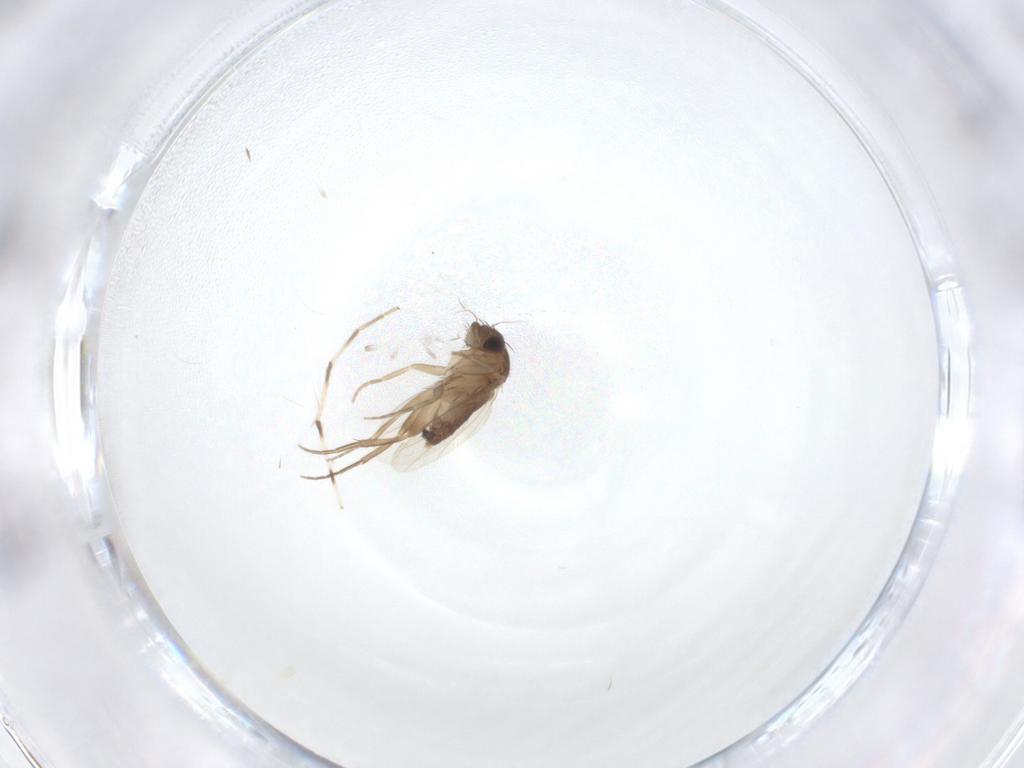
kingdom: Animalia
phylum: Arthropoda
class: Insecta
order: Diptera
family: Phoridae
